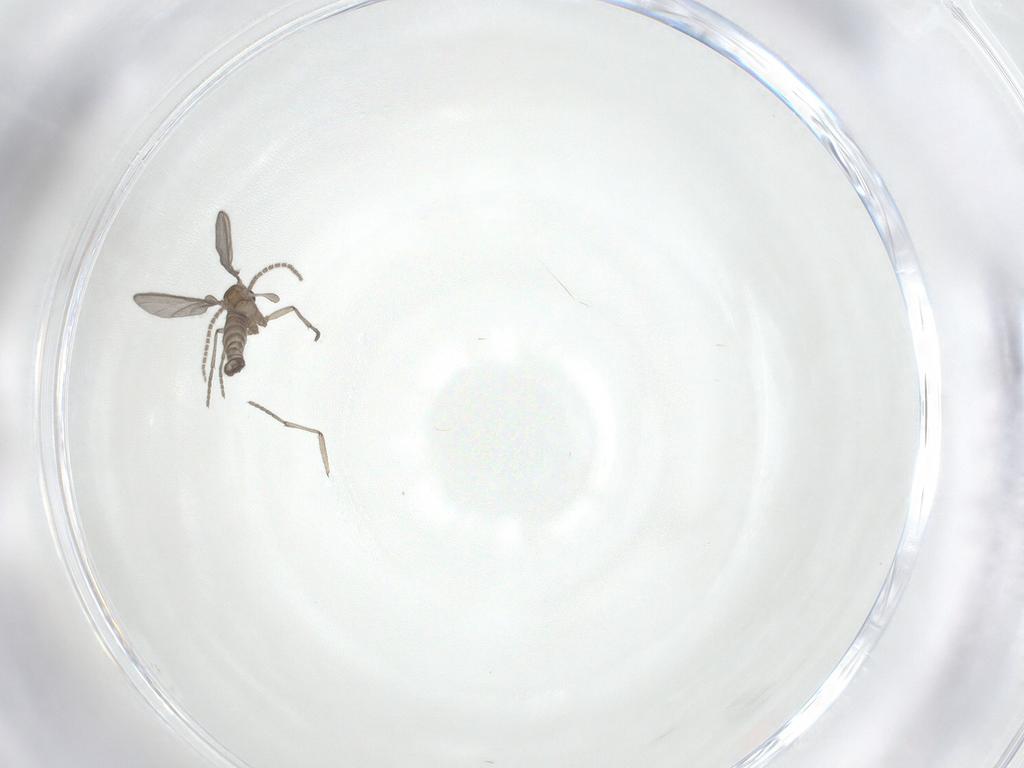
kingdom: Animalia
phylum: Arthropoda
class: Insecta
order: Diptera
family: Sciaridae
